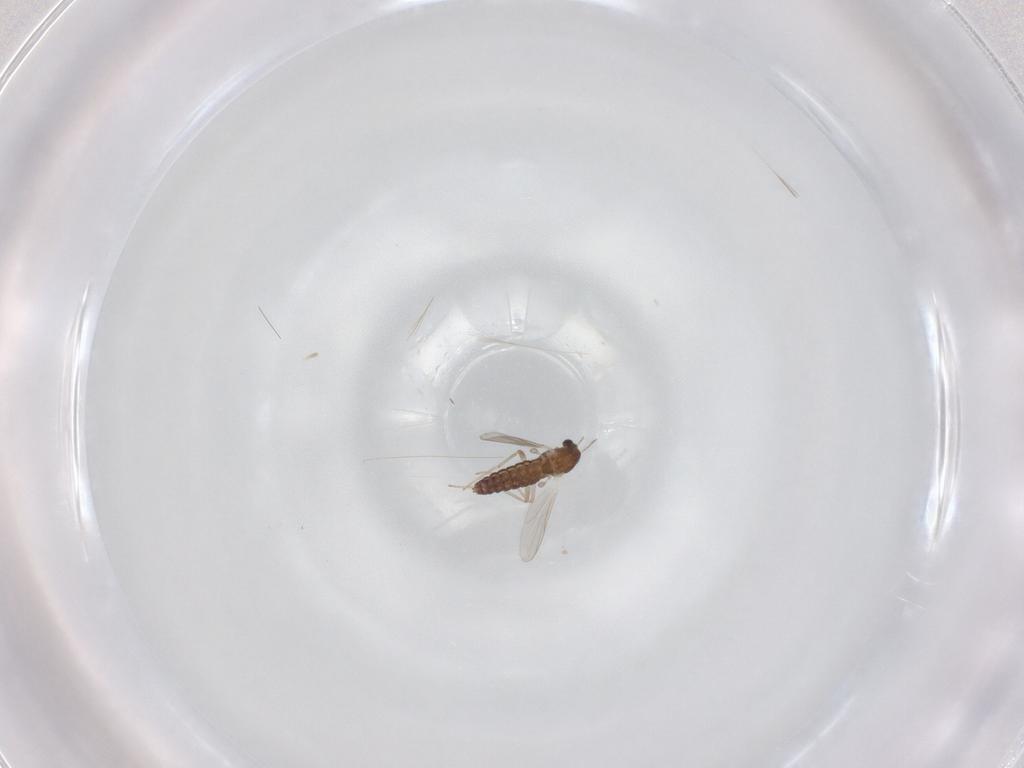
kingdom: Animalia
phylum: Arthropoda
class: Insecta
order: Diptera
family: Chironomidae
